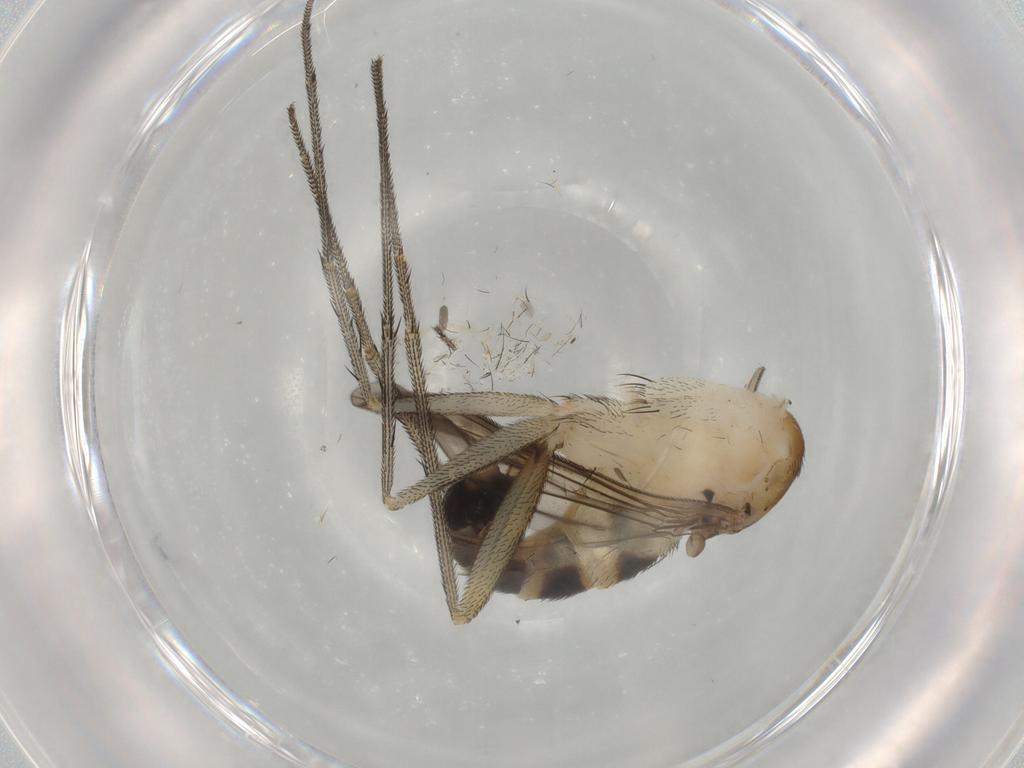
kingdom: Animalia
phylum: Arthropoda
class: Insecta
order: Diptera
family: Dolichopodidae
